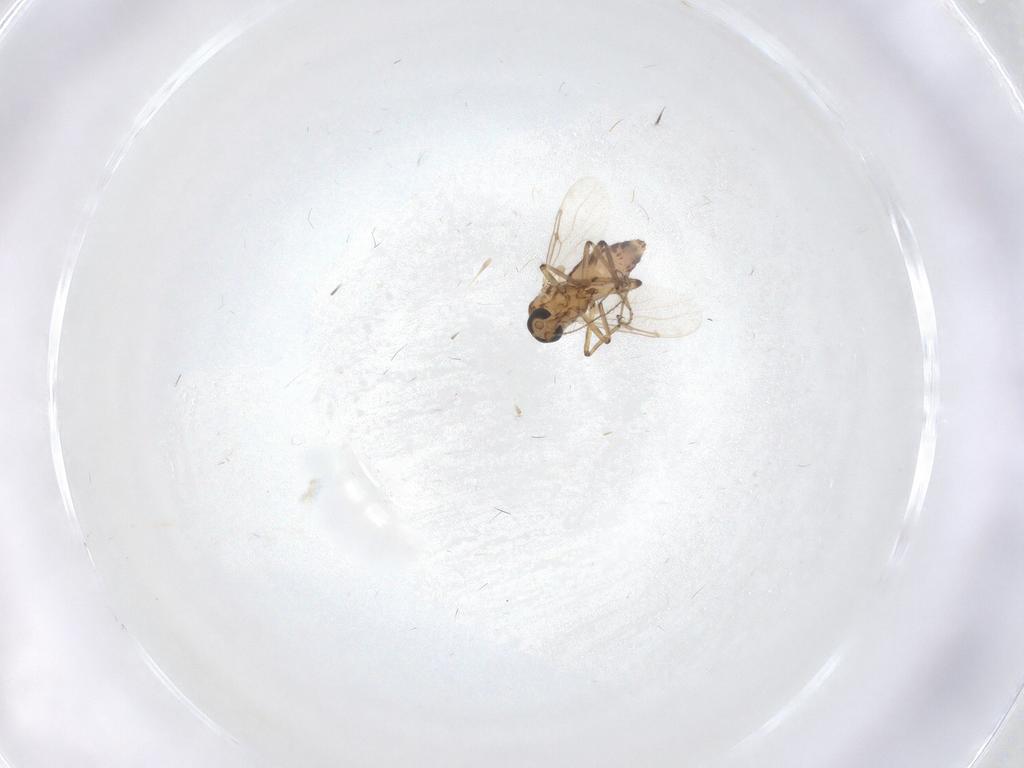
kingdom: Animalia
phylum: Arthropoda
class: Insecta
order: Diptera
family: Ceratopogonidae
